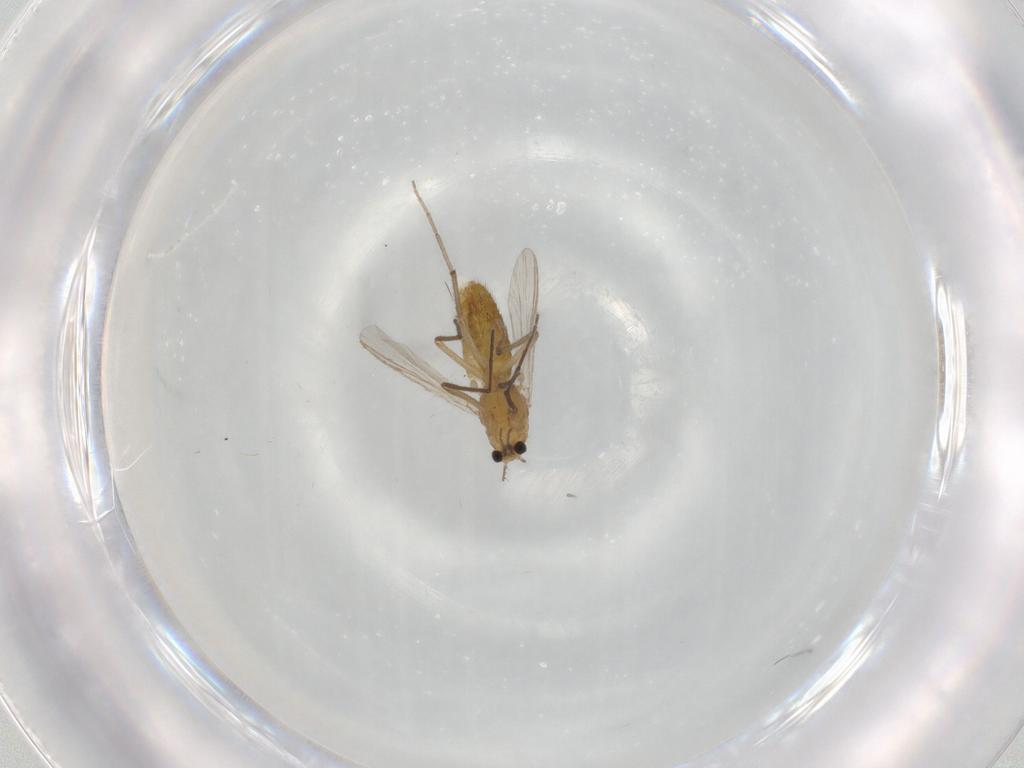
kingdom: Animalia
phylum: Arthropoda
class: Insecta
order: Diptera
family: Chironomidae
